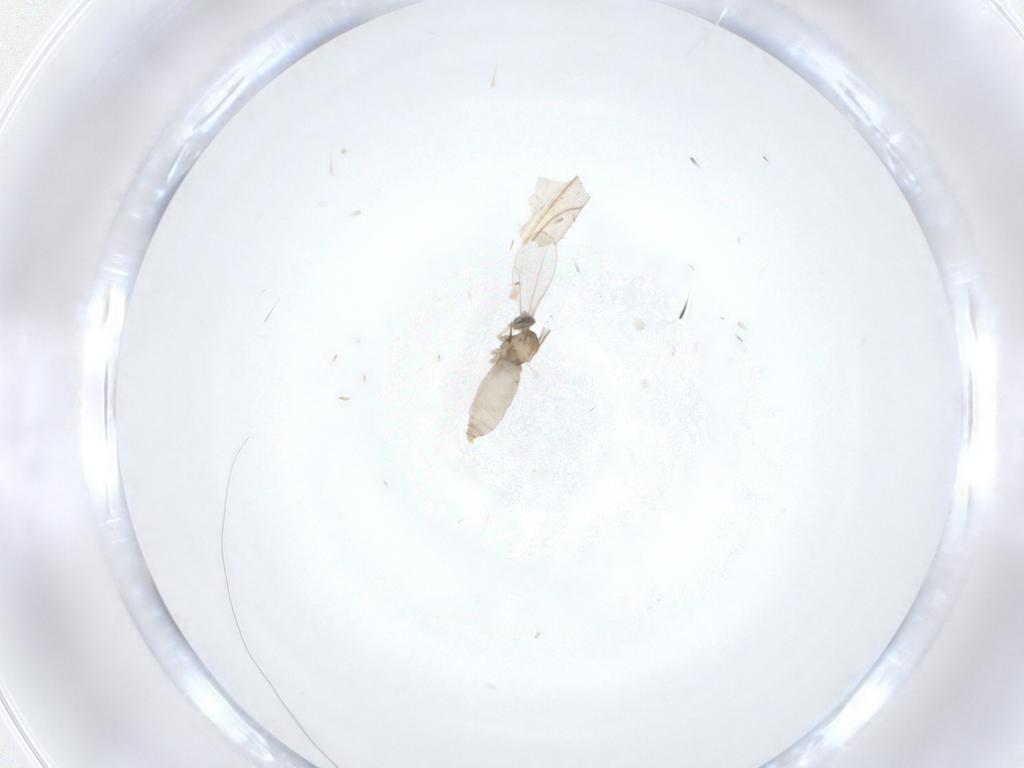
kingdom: Animalia
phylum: Arthropoda
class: Insecta
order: Diptera
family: Cecidomyiidae
